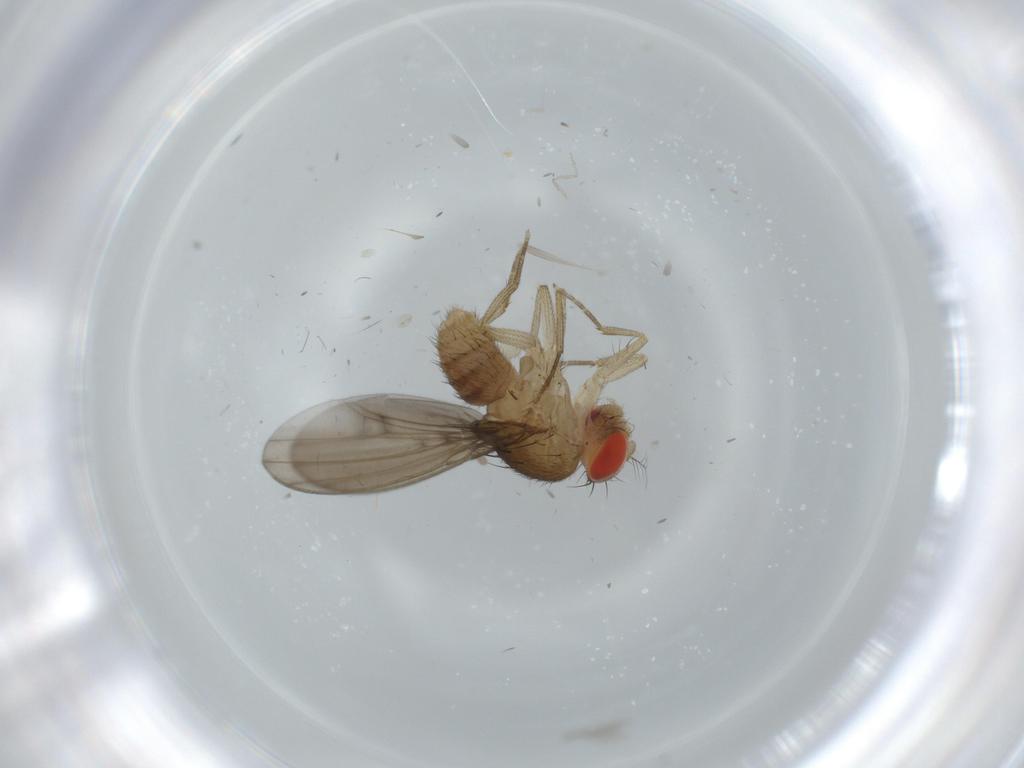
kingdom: Animalia
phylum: Arthropoda
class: Insecta
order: Diptera
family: Drosophilidae
